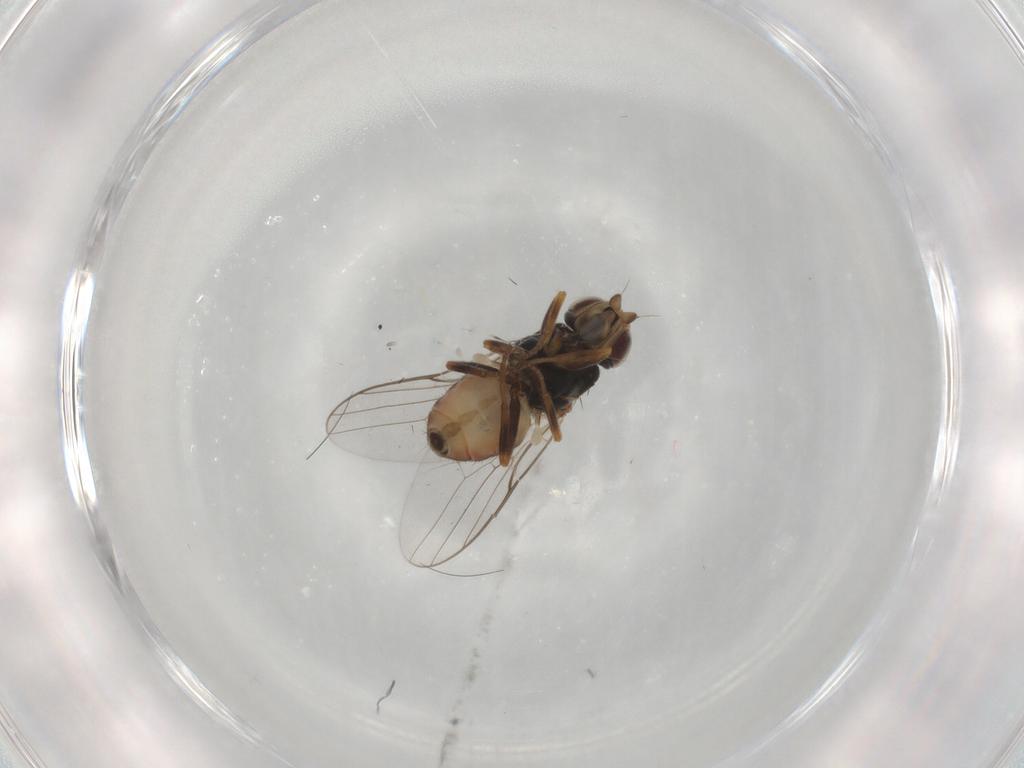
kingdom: Animalia
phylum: Arthropoda
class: Insecta
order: Diptera
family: Chloropidae
